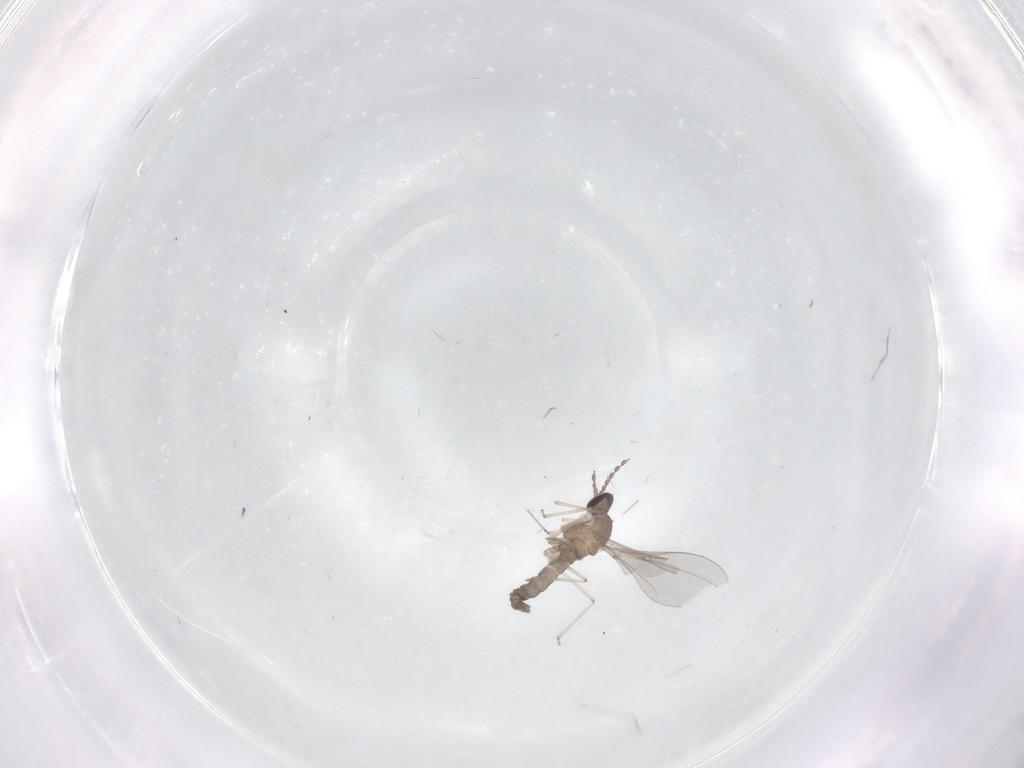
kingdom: Animalia
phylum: Arthropoda
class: Insecta
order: Diptera
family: Cecidomyiidae
